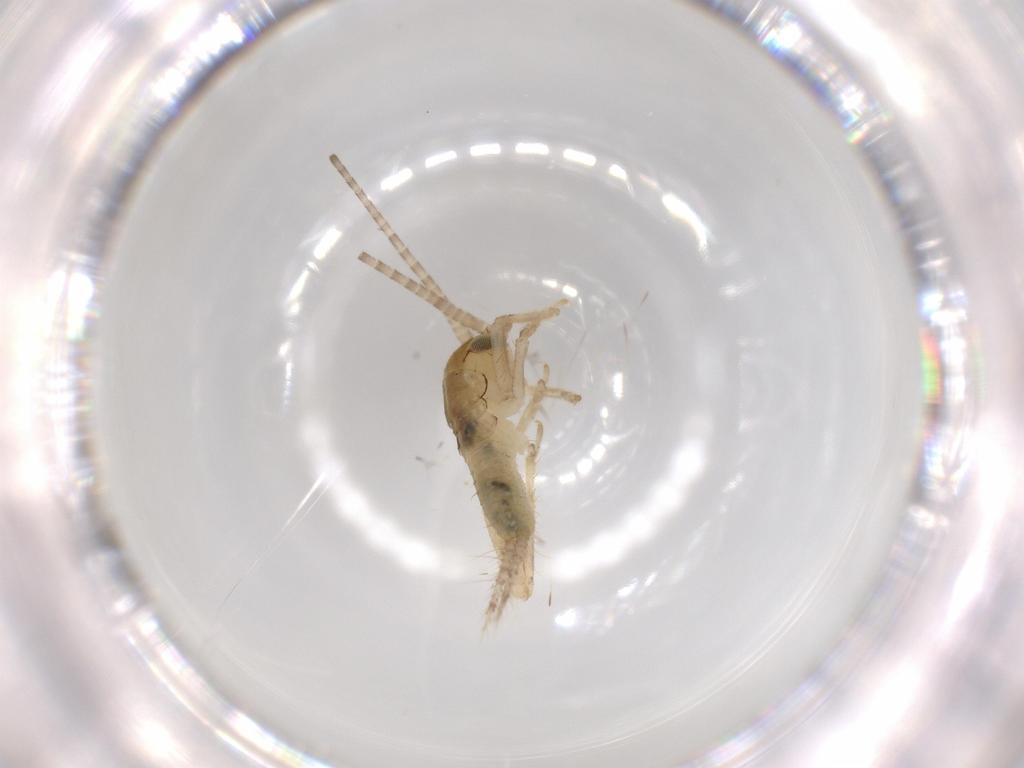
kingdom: Animalia
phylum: Arthropoda
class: Insecta
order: Orthoptera
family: Gryllidae
